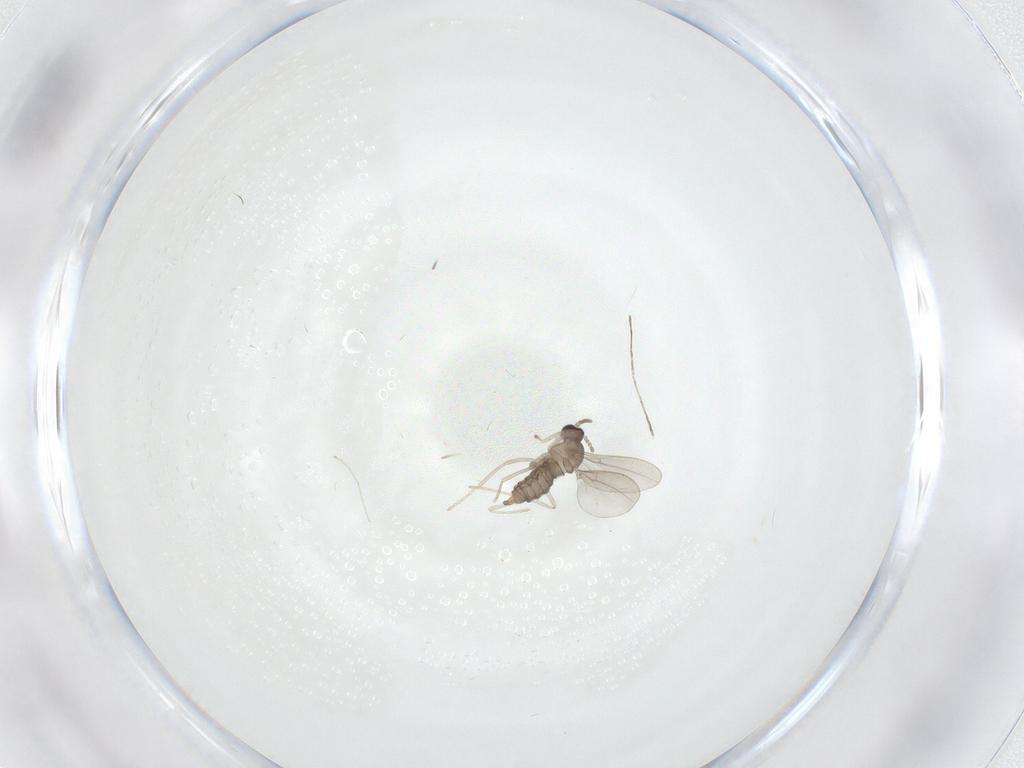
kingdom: Animalia
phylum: Arthropoda
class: Insecta
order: Diptera
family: Cecidomyiidae
